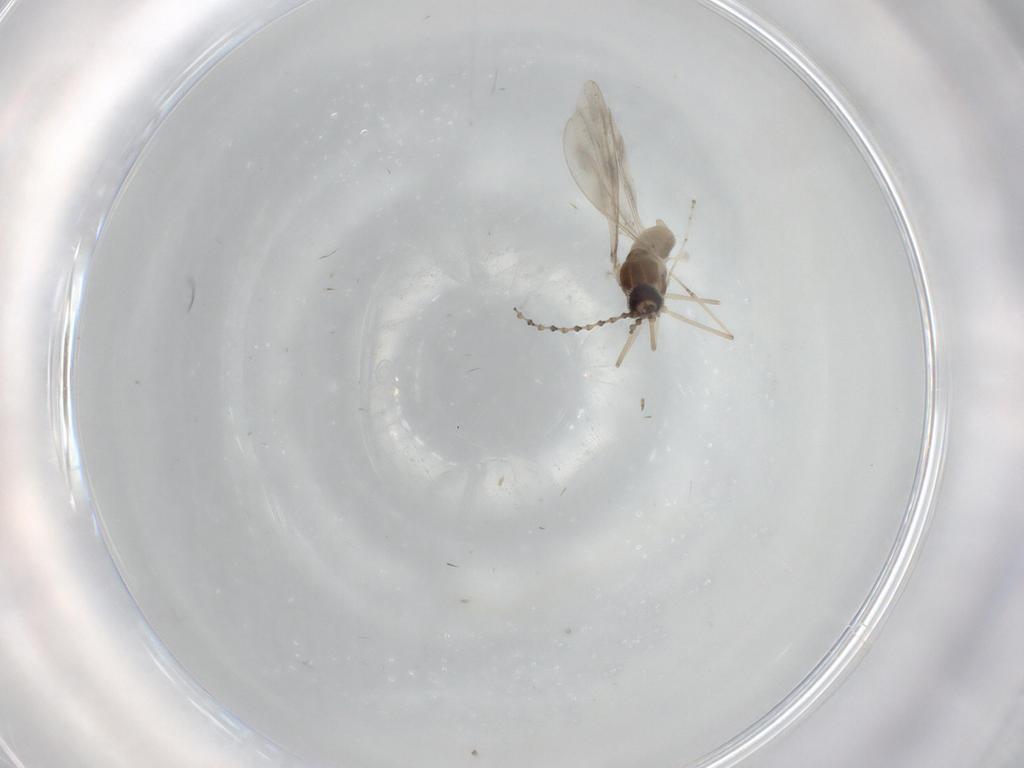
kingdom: Animalia
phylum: Arthropoda
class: Insecta
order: Diptera
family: Cecidomyiidae
